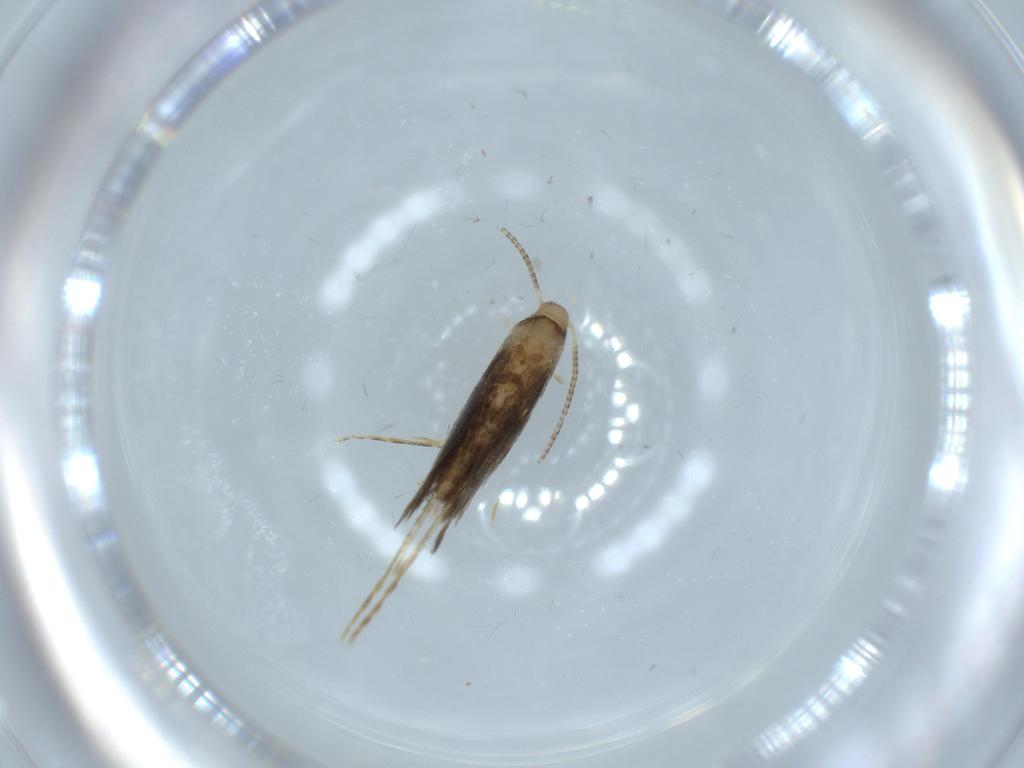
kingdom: Animalia
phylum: Arthropoda
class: Insecta
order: Lepidoptera
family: Gracillariidae
